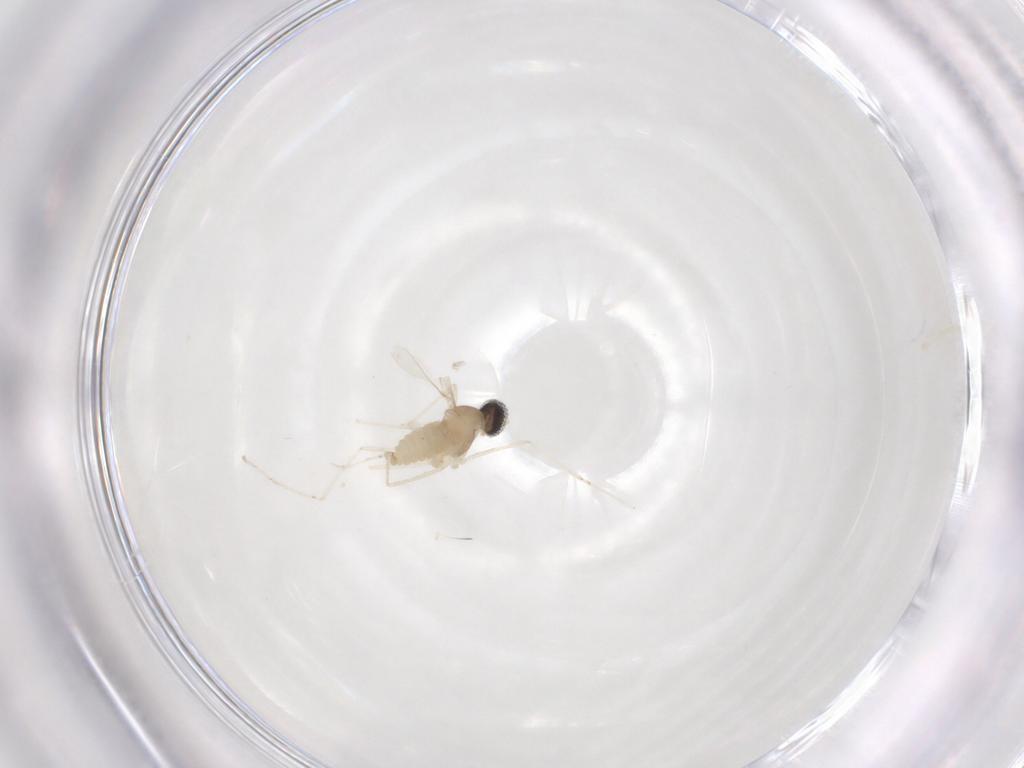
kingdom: Animalia
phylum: Arthropoda
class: Insecta
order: Diptera
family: Cecidomyiidae
